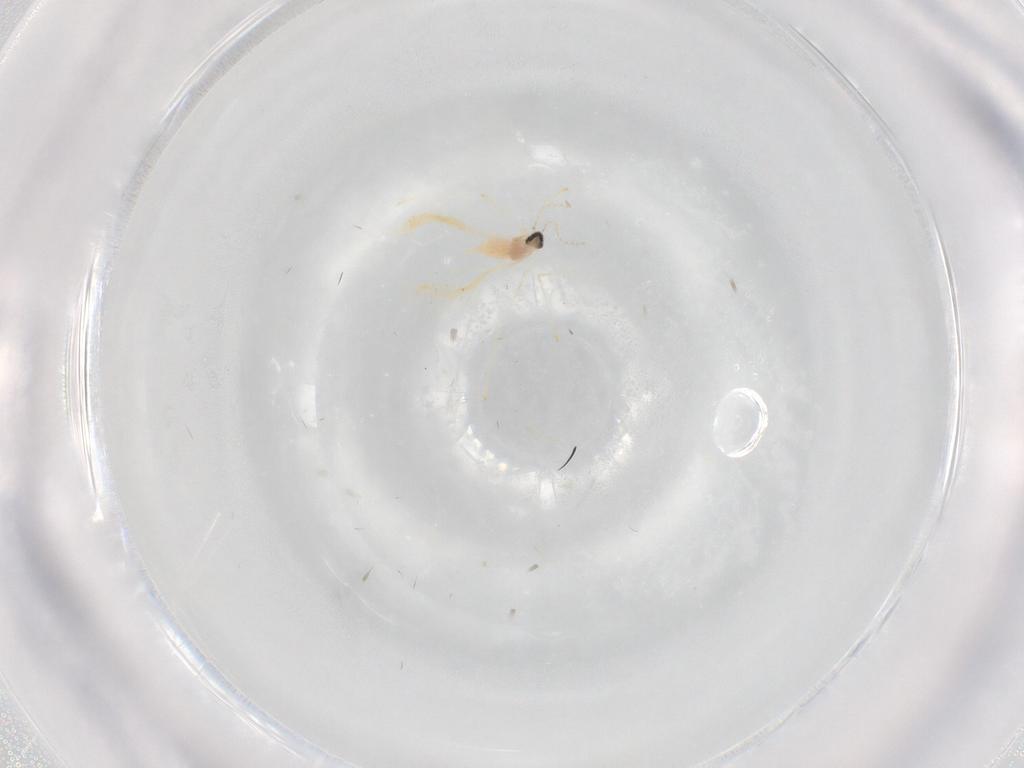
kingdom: Animalia
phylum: Arthropoda
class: Insecta
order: Diptera
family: Cecidomyiidae
